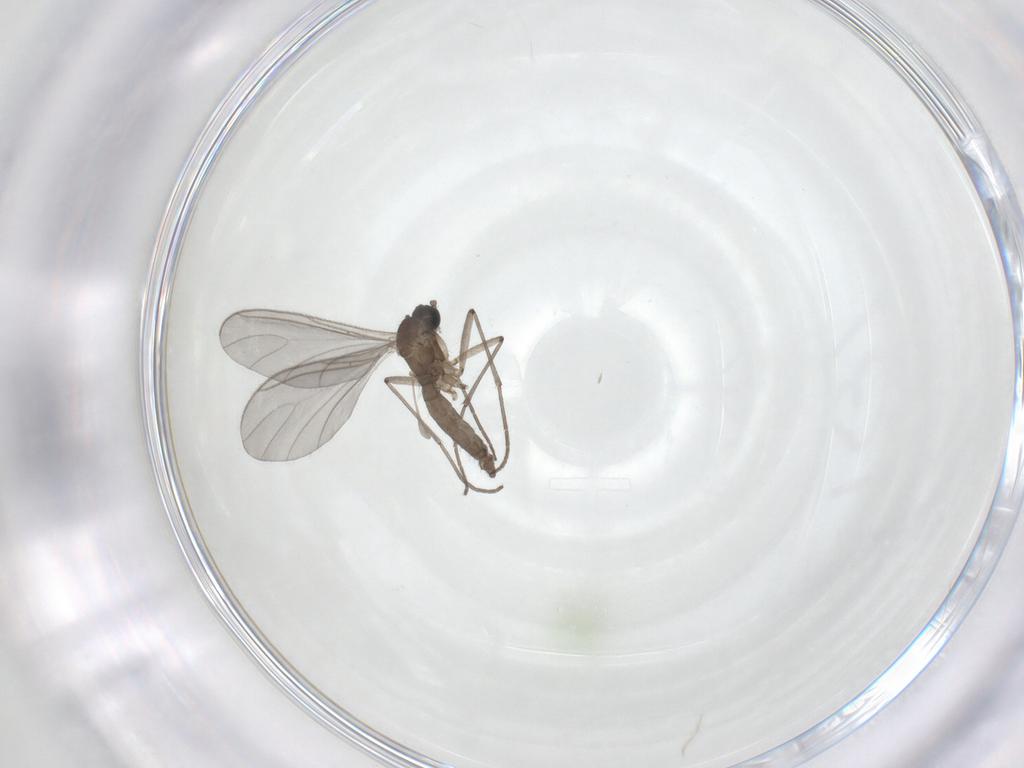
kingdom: Animalia
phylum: Arthropoda
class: Insecta
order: Diptera
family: Sciaridae
